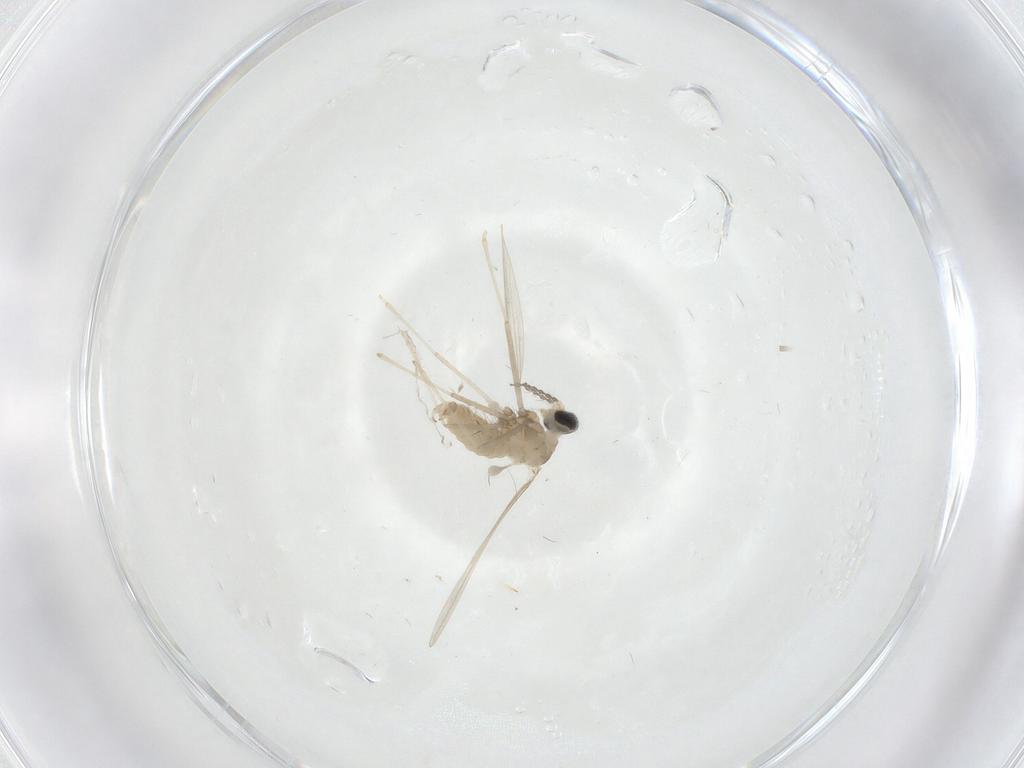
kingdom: Animalia
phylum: Arthropoda
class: Insecta
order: Diptera
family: Cecidomyiidae
